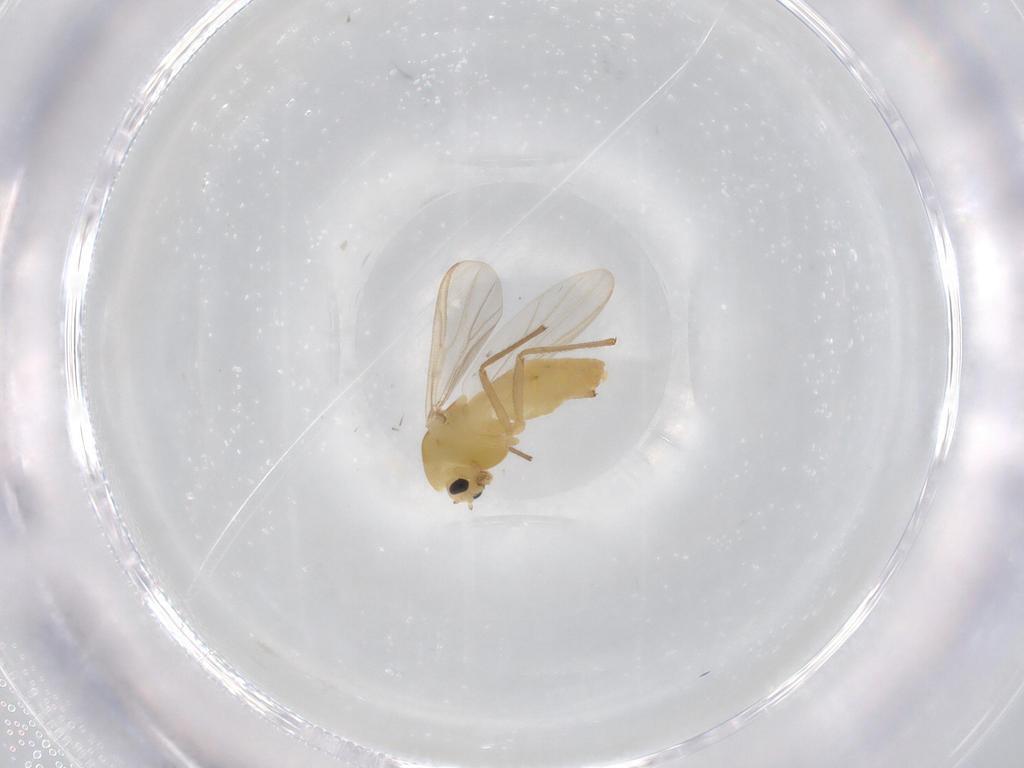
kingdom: Animalia
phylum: Arthropoda
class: Insecta
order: Diptera
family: Chironomidae
